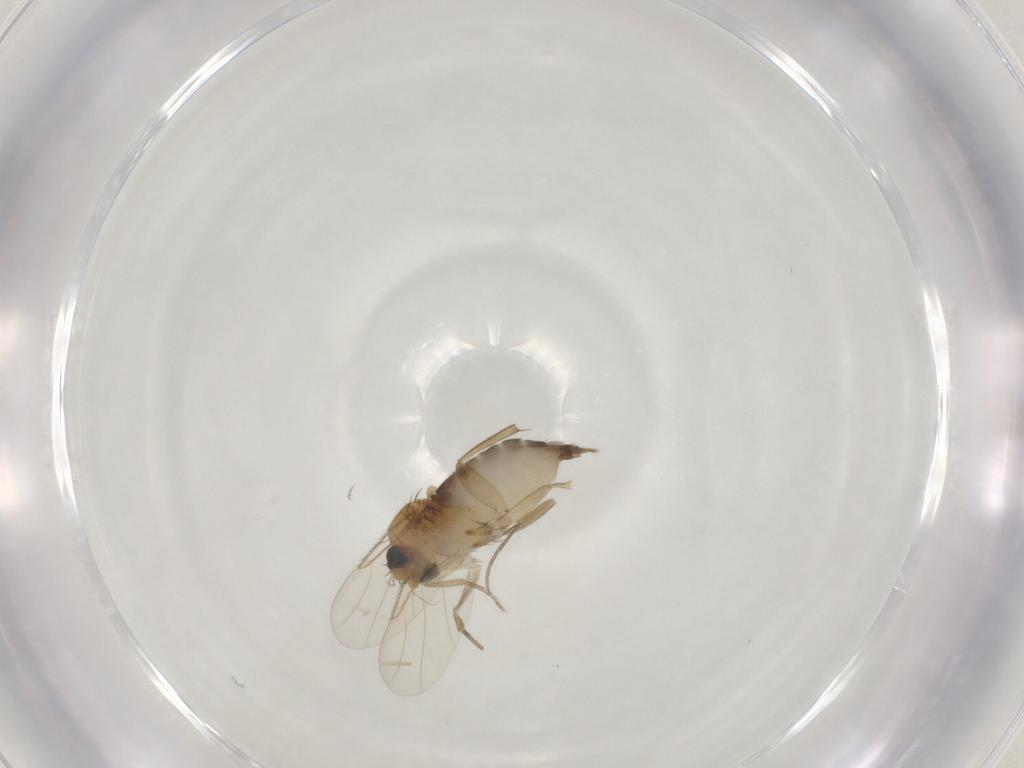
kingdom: Animalia
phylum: Arthropoda
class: Insecta
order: Diptera
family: Phoridae
